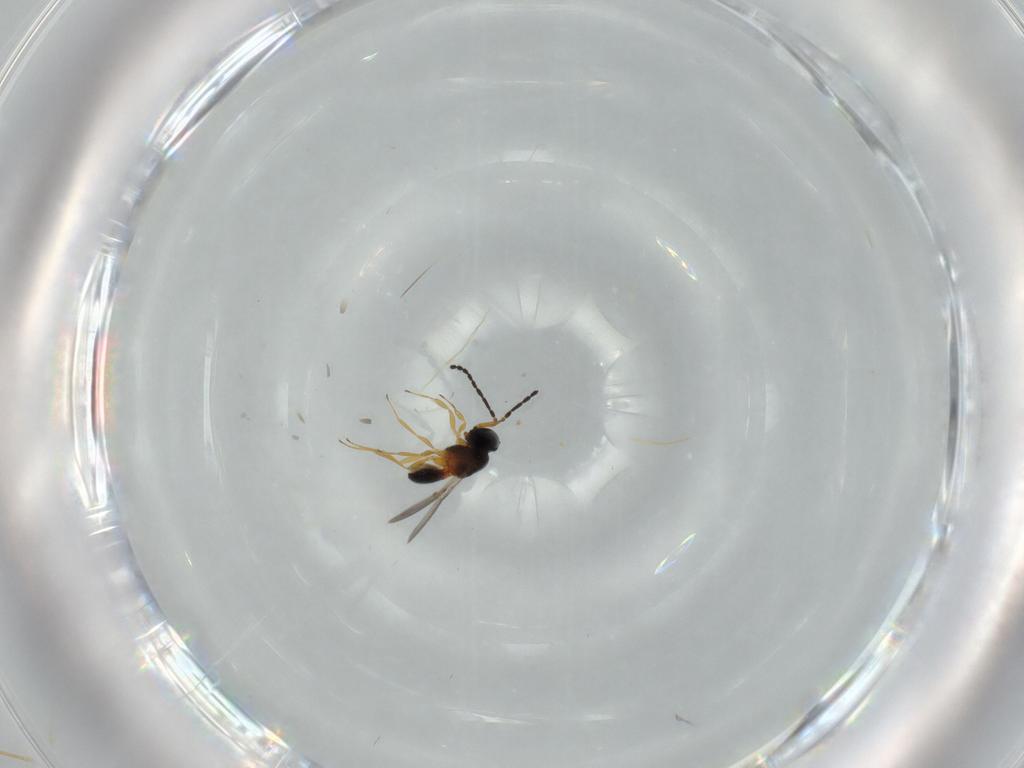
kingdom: Animalia
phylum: Arthropoda
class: Insecta
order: Hymenoptera
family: Scelionidae
